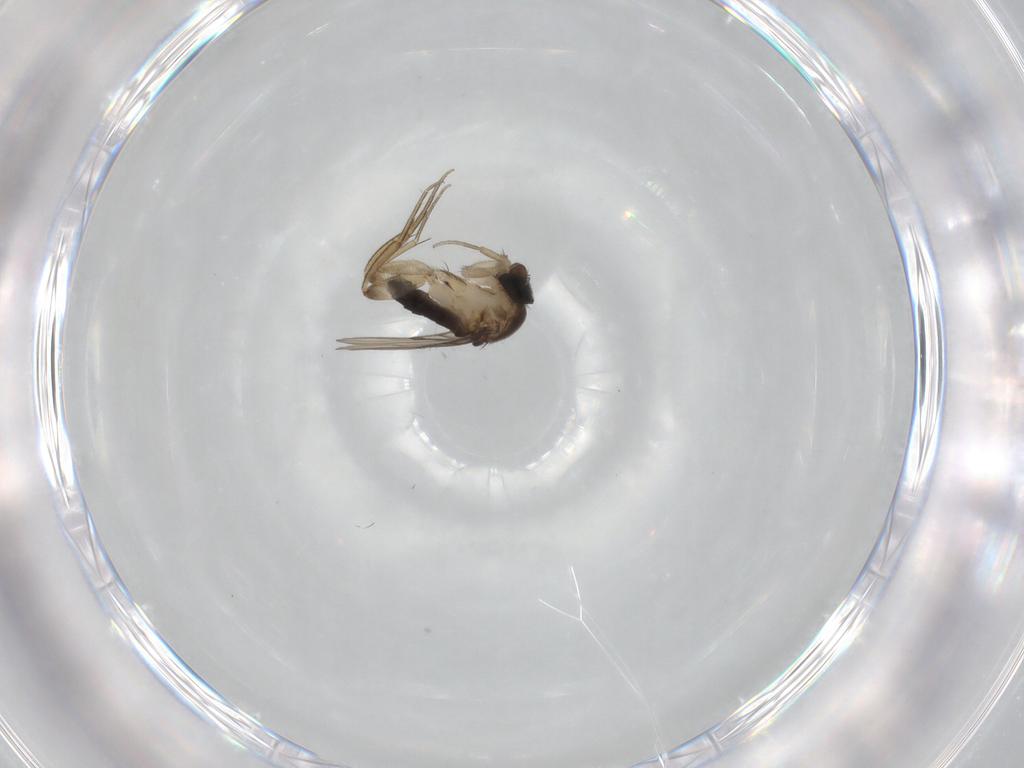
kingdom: Animalia
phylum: Arthropoda
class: Insecta
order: Diptera
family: Phoridae
